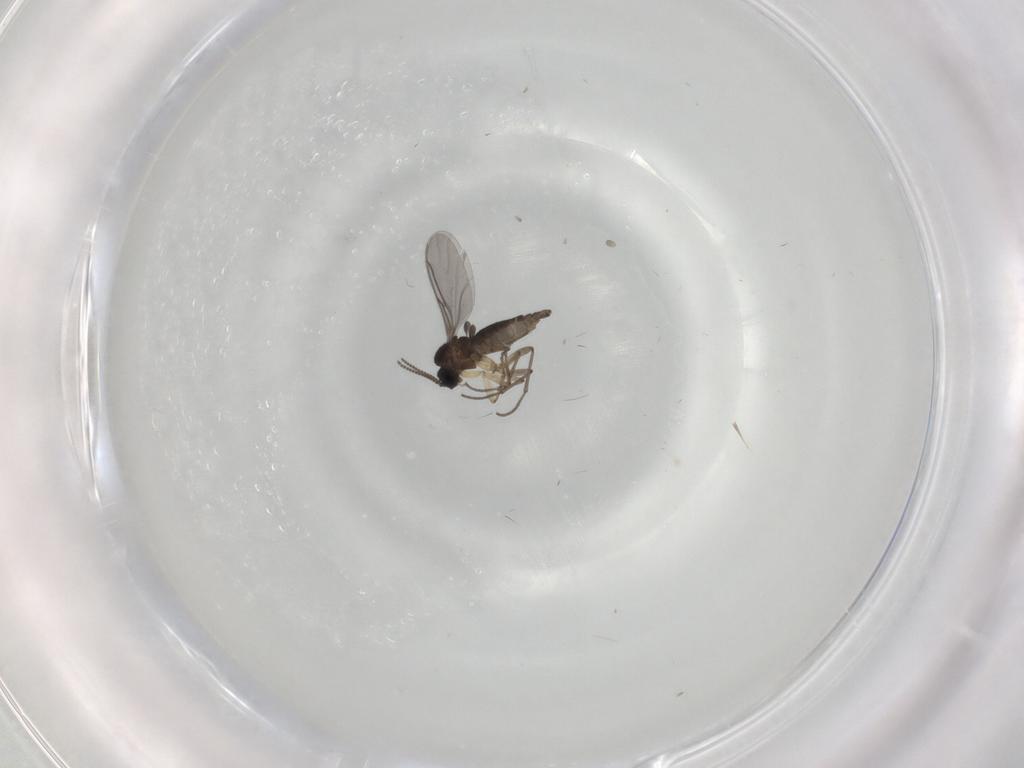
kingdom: Animalia
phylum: Arthropoda
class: Insecta
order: Diptera
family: Sciaridae
